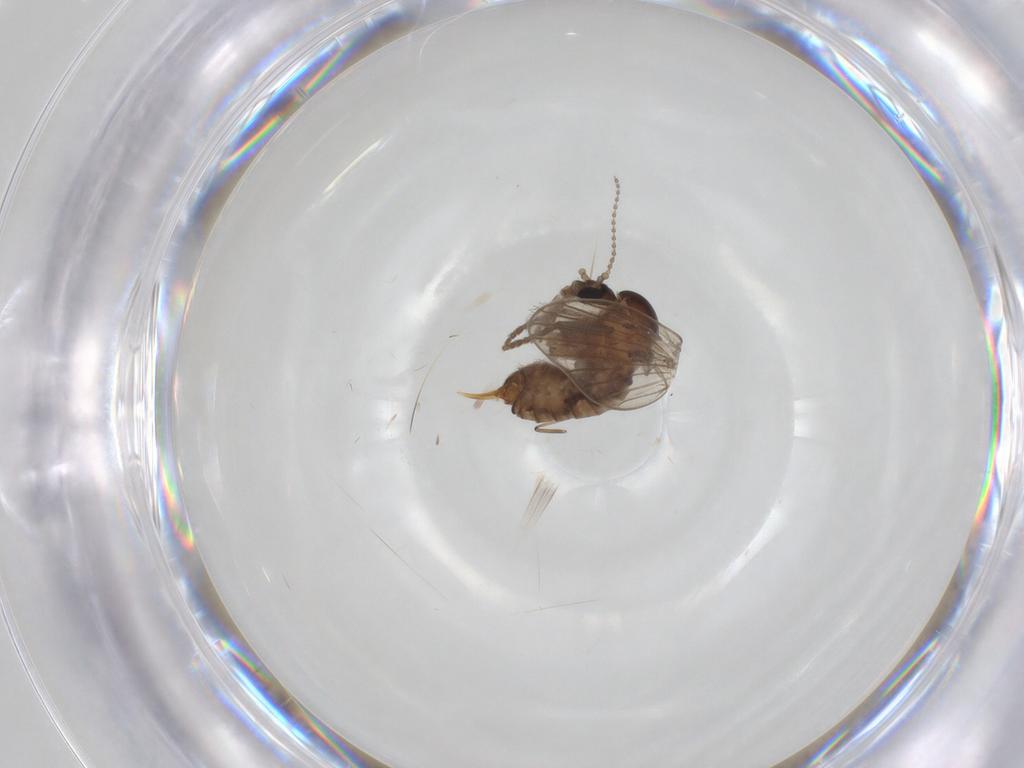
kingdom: Animalia
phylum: Arthropoda
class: Insecta
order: Diptera
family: Psychodidae
